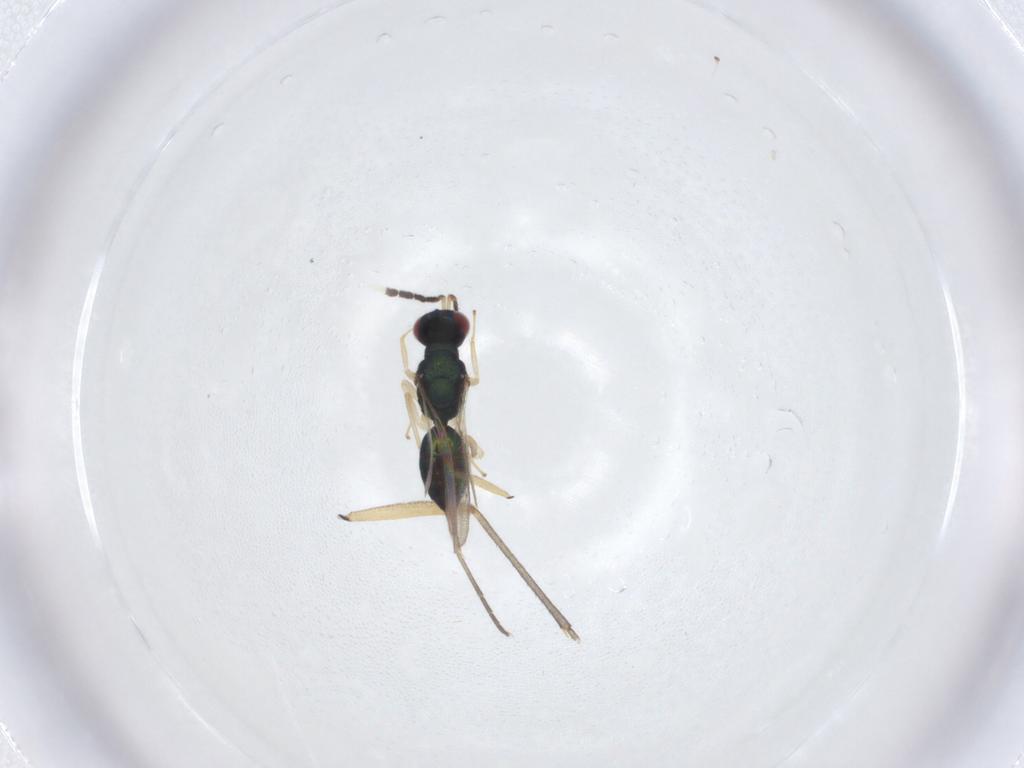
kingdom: Animalia
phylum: Arthropoda
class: Insecta
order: Hymenoptera
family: Eulophidae
